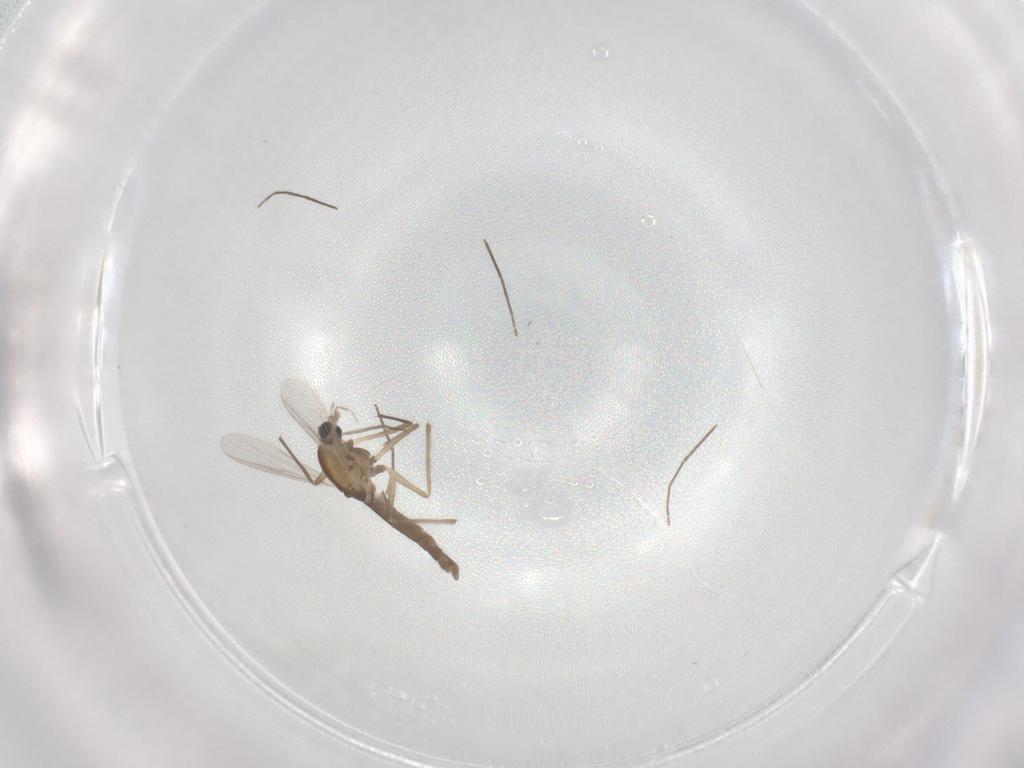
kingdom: Animalia
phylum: Arthropoda
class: Insecta
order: Diptera
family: Chironomidae
